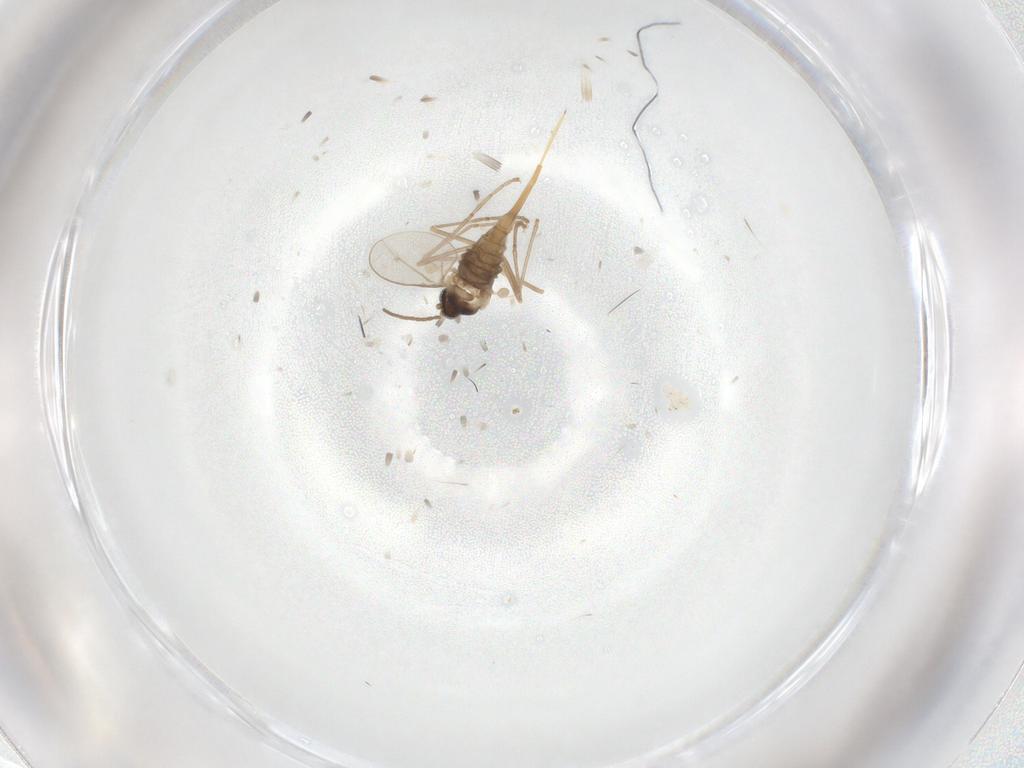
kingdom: Animalia
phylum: Arthropoda
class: Insecta
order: Diptera
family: Cecidomyiidae
